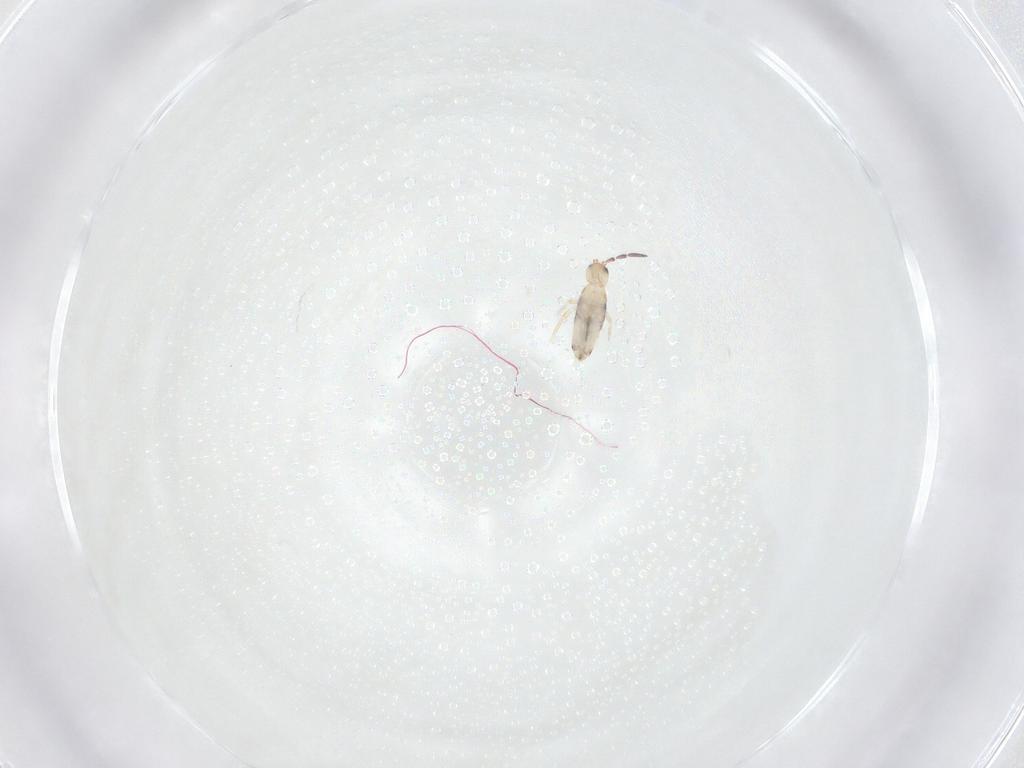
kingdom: Animalia
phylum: Arthropoda
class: Collembola
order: Entomobryomorpha
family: Entomobryidae
